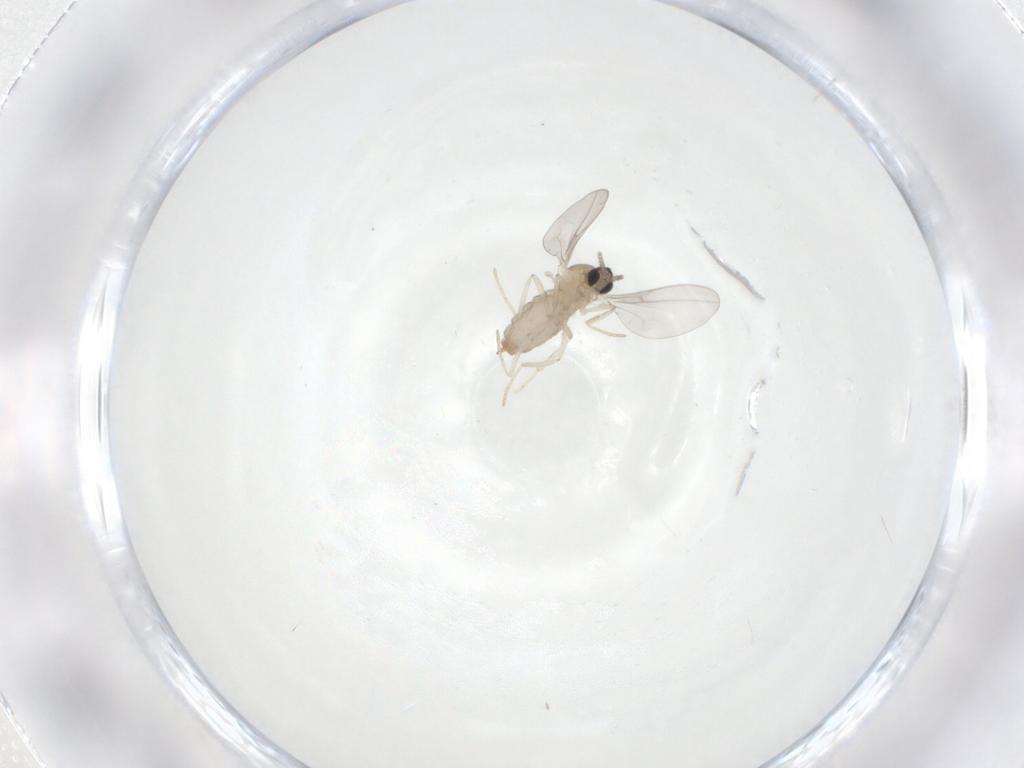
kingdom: Animalia
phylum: Arthropoda
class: Insecta
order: Diptera
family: Cecidomyiidae
